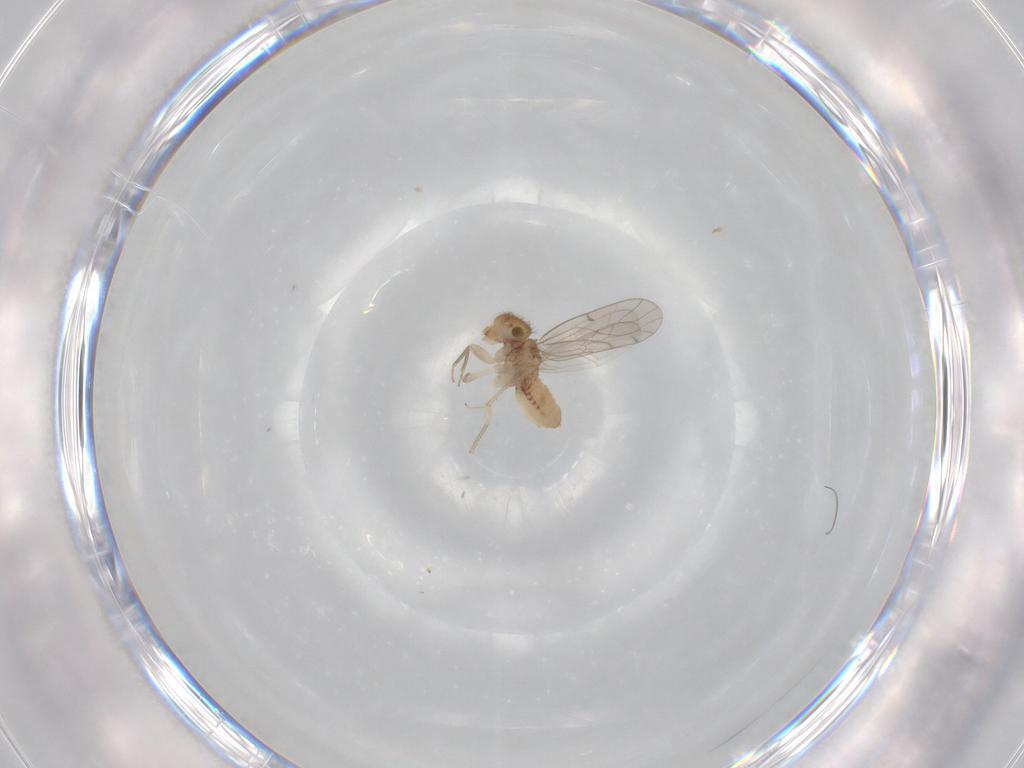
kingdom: Animalia
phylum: Arthropoda
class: Insecta
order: Psocodea
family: Ectopsocidae
